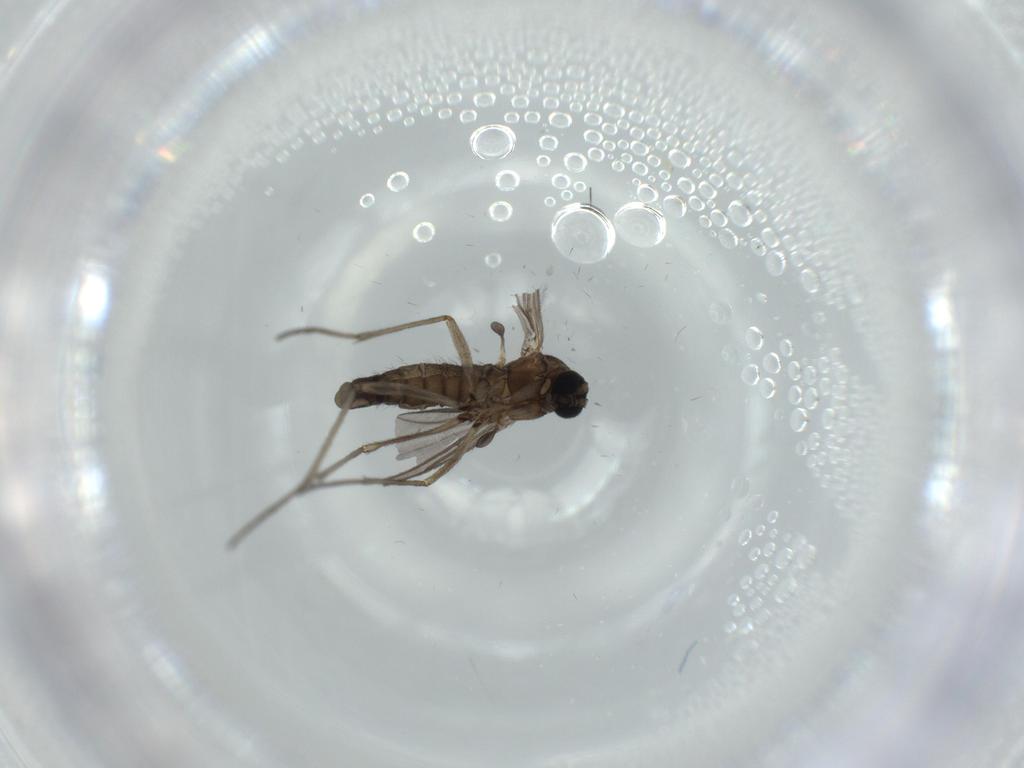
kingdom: Animalia
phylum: Arthropoda
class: Insecta
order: Diptera
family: Sciaridae
